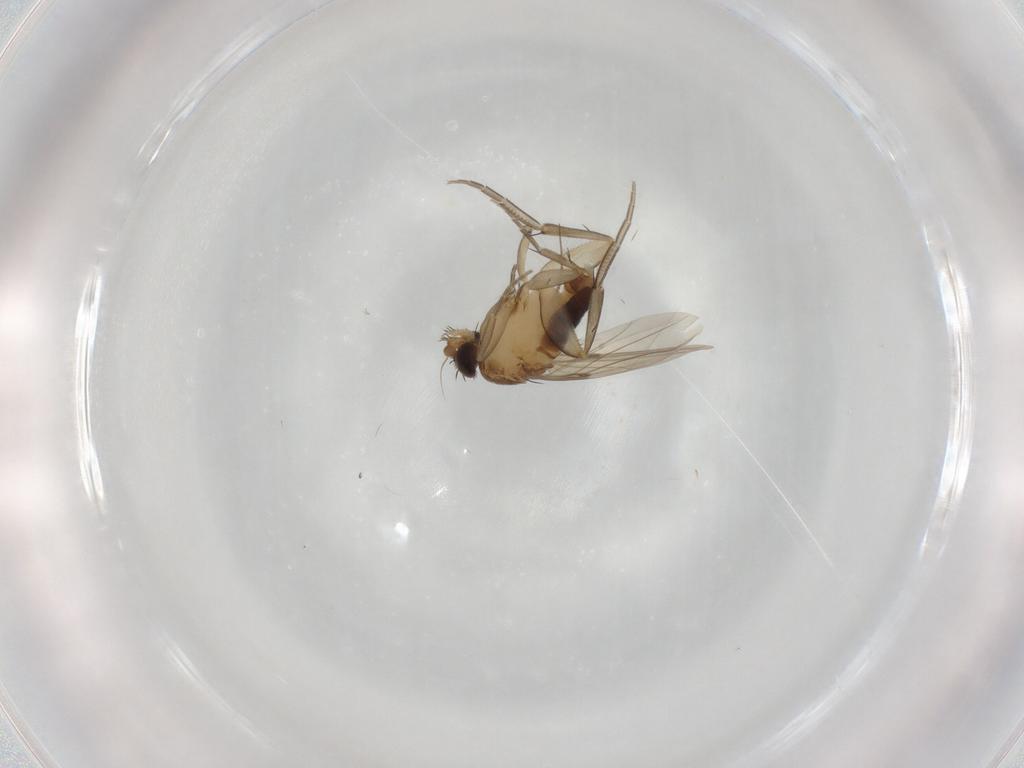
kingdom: Animalia
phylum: Arthropoda
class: Insecta
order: Diptera
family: Phoridae
